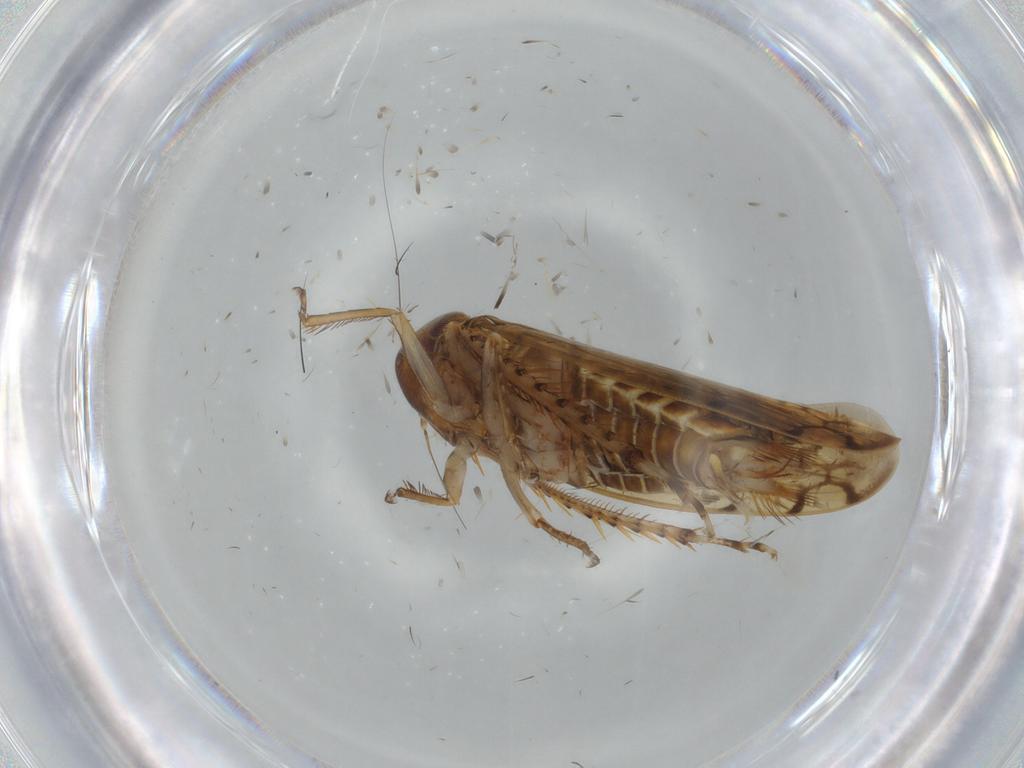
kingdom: Animalia
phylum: Arthropoda
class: Insecta
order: Hemiptera
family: Cicadellidae
